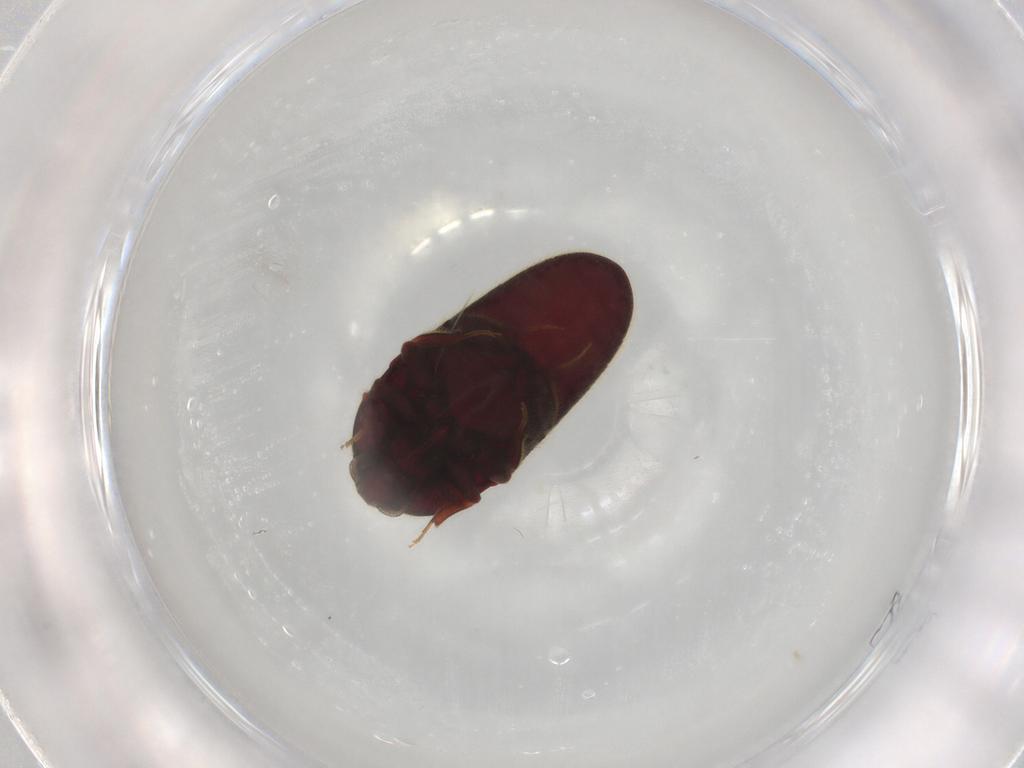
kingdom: Animalia
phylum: Arthropoda
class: Insecta
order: Coleoptera
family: Throscidae
